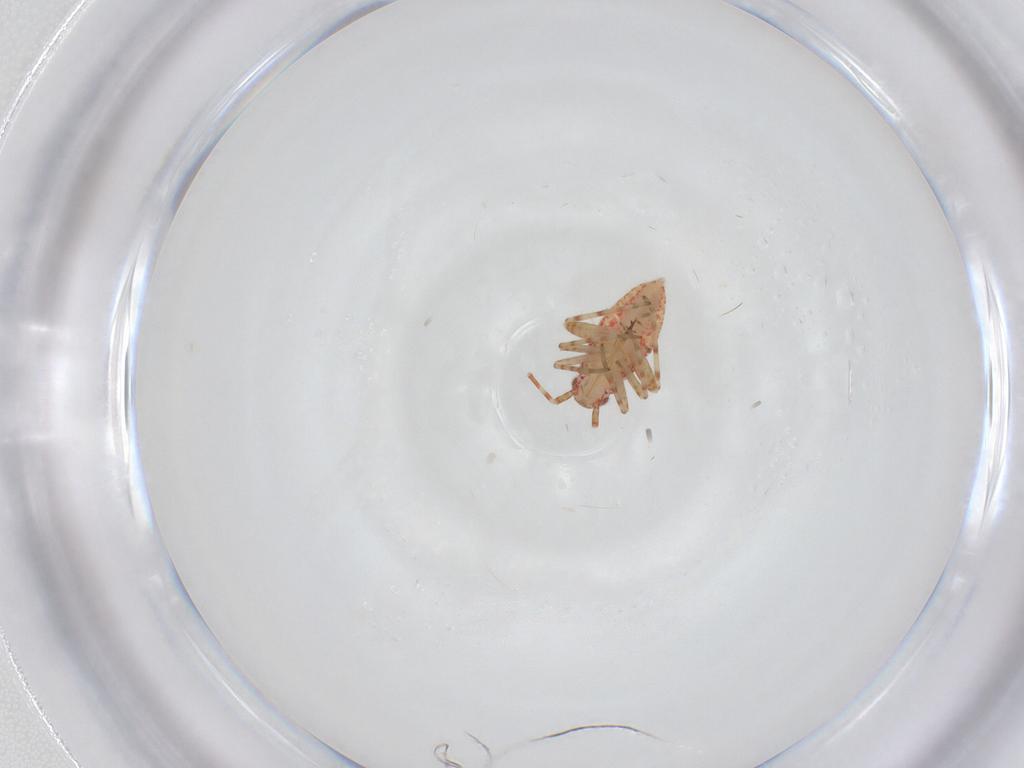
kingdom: Animalia
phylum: Arthropoda
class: Insecta
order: Hemiptera
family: Miridae
